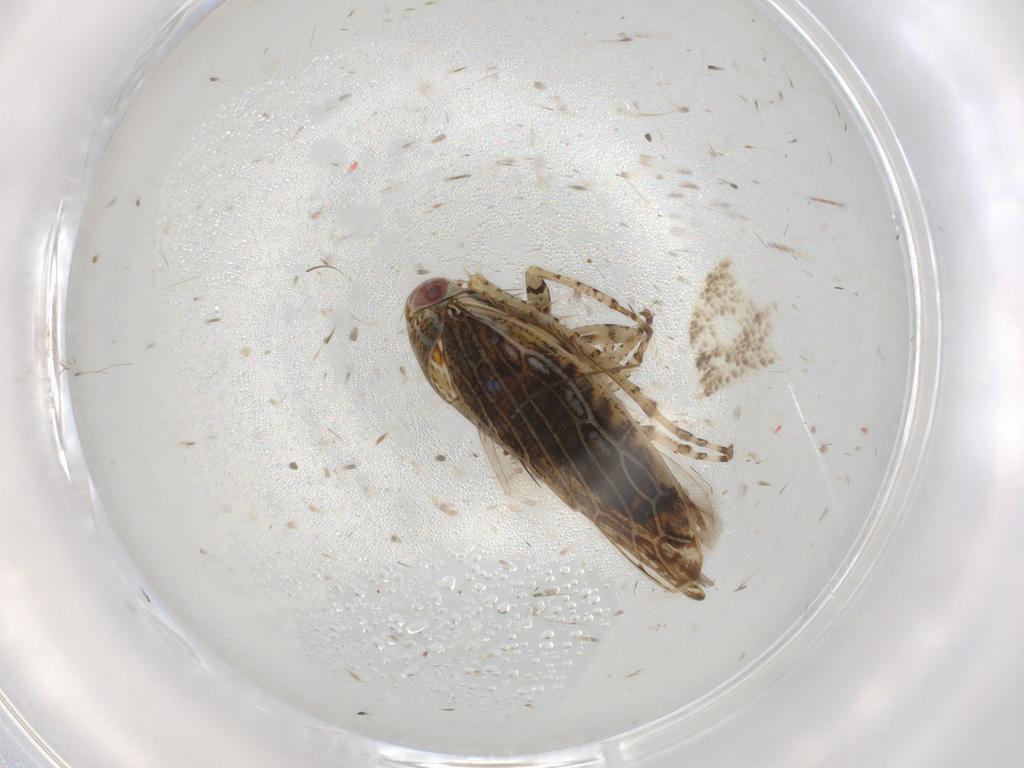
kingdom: Animalia
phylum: Arthropoda
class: Insecta
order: Hemiptera
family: Cicadellidae
